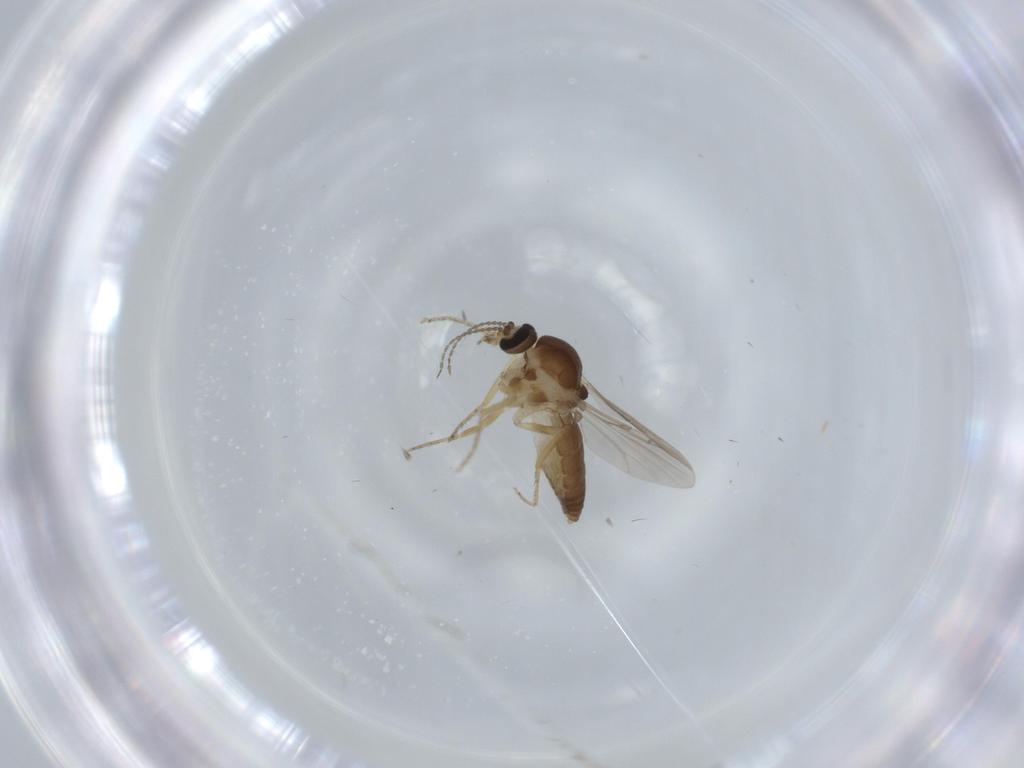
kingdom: Animalia
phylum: Arthropoda
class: Insecta
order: Diptera
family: Ceratopogonidae
